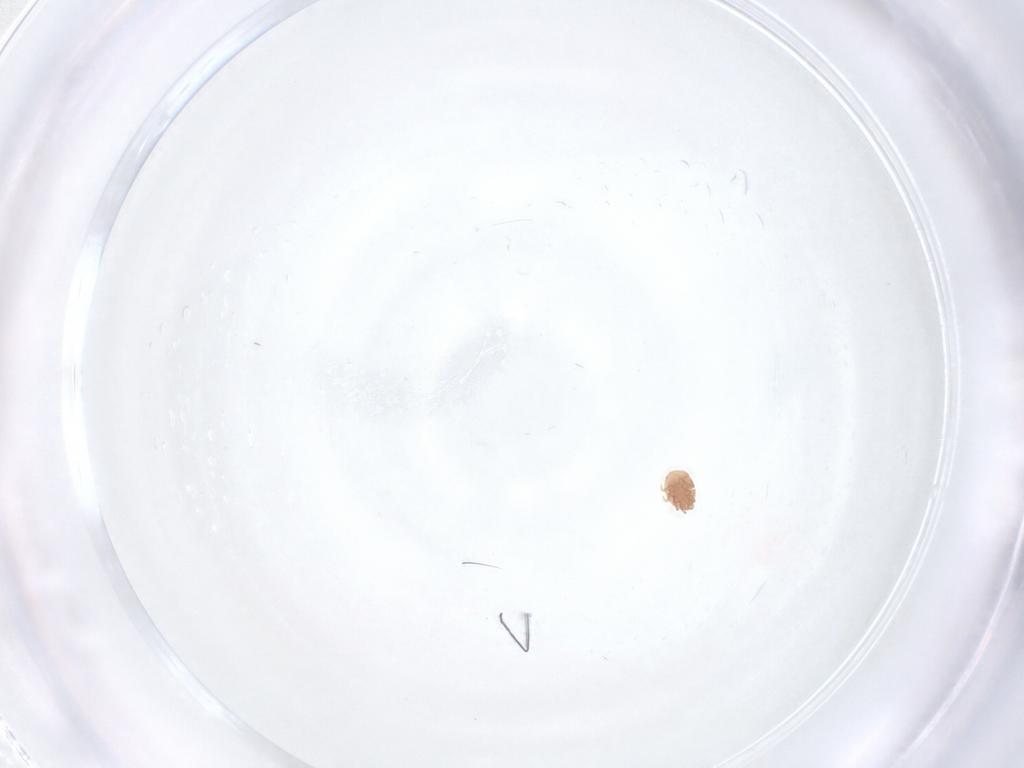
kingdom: Animalia
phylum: Arthropoda
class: Arachnida
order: Mesostigmata
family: Trematuridae
